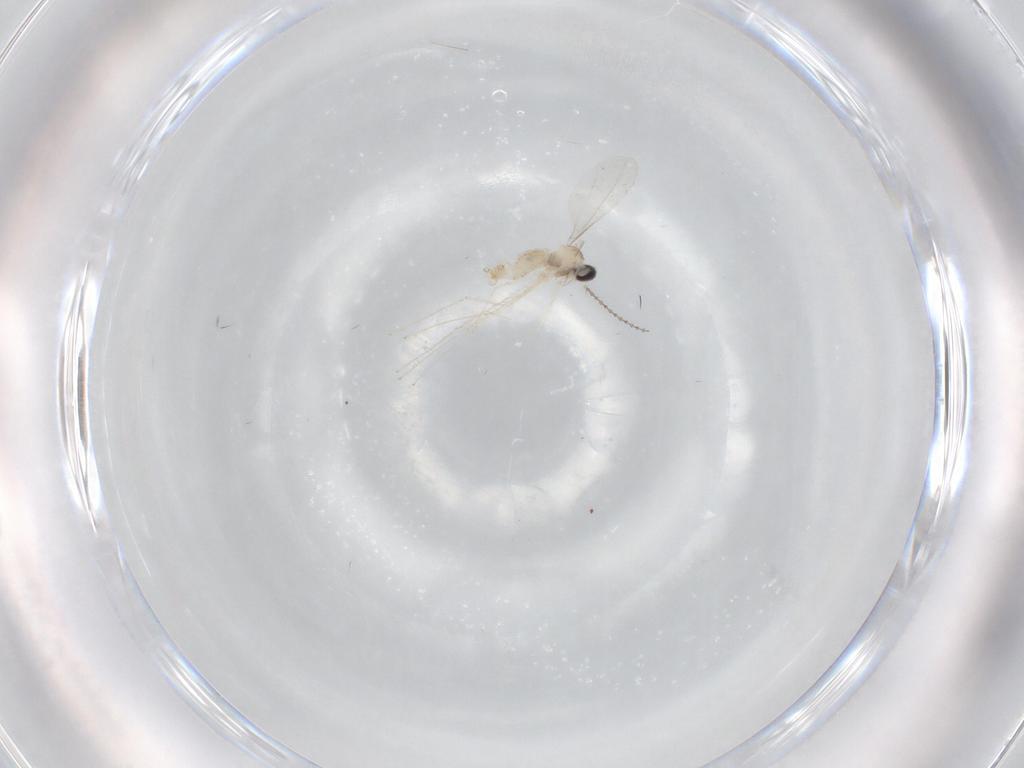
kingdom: Animalia
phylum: Arthropoda
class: Insecta
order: Diptera
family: Cecidomyiidae
